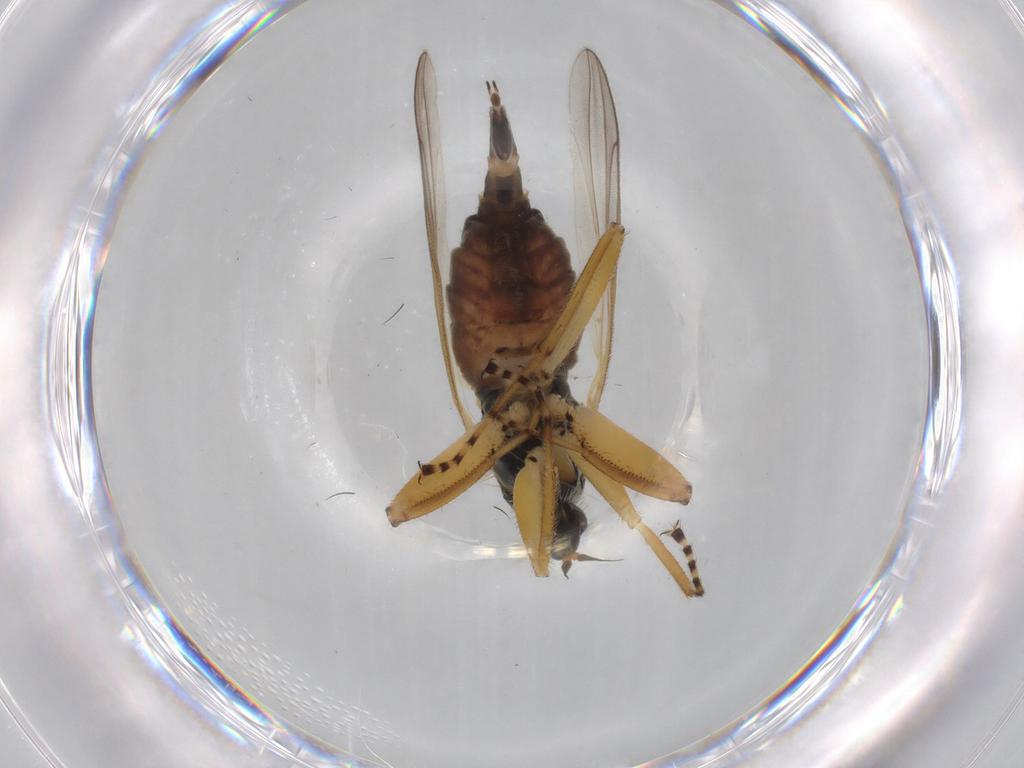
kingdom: Animalia
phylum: Arthropoda
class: Insecta
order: Diptera
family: Hybotidae
